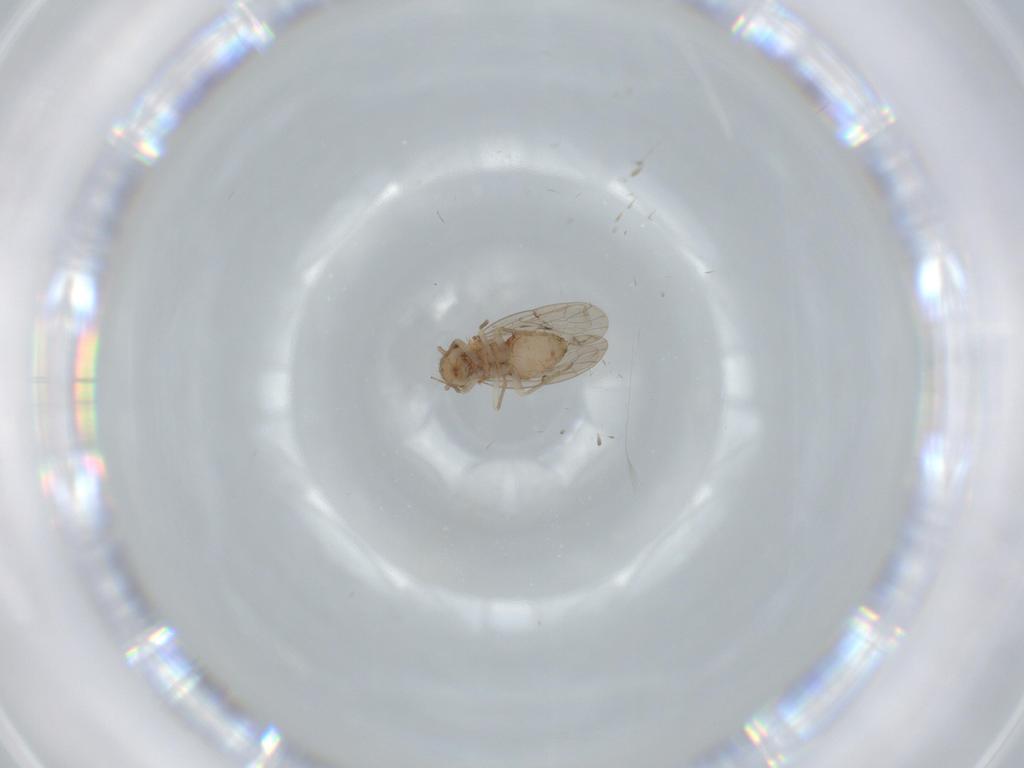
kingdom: Animalia
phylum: Arthropoda
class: Insecta
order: Psocodea
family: Ectopsocidae
